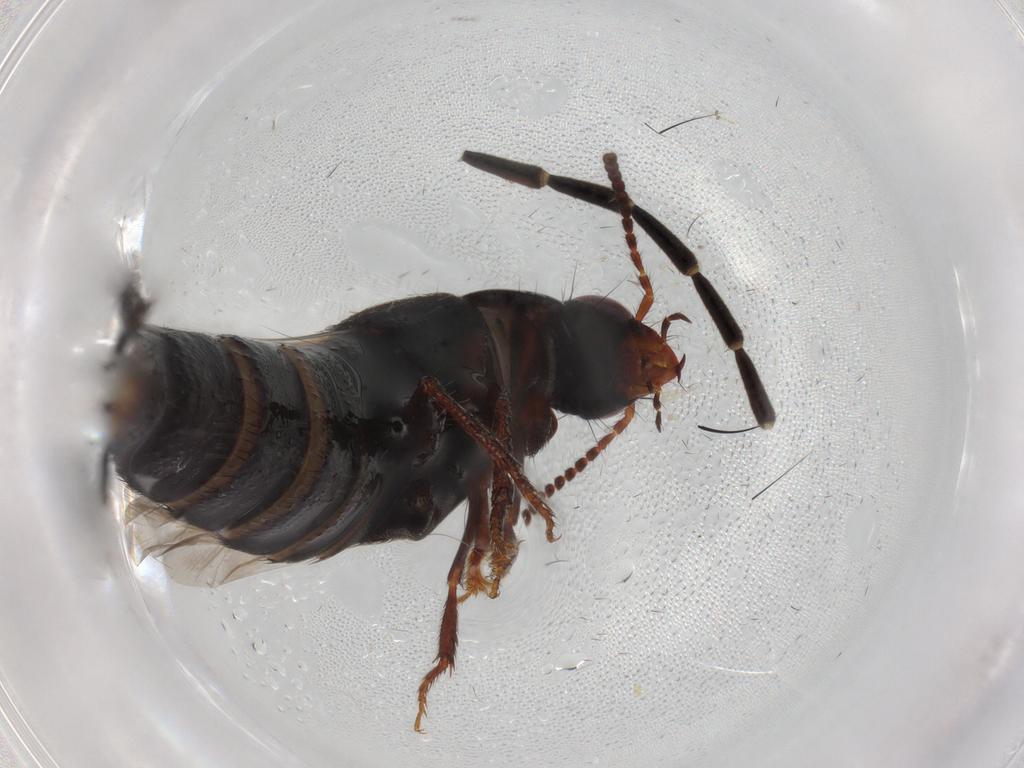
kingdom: Animalia
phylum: Arthropoda
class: Insecta
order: Coleoptera
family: Staphylinidae
